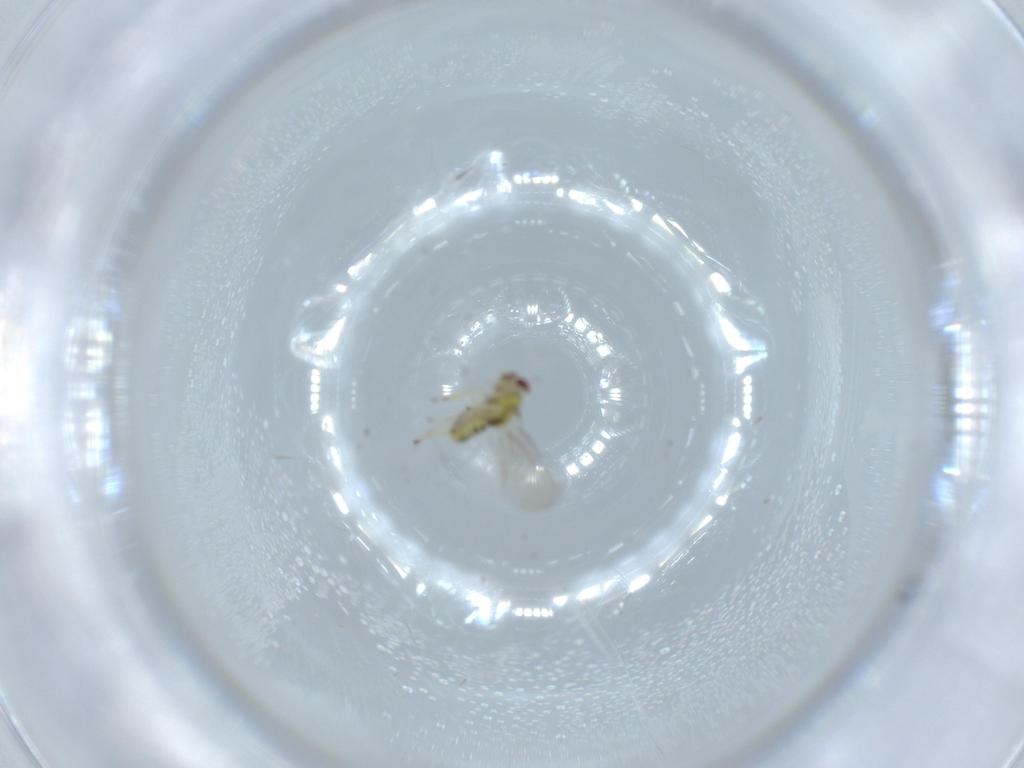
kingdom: Animalia
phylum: Arthropoda
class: Insecta
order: Hymenoptera
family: Eulophidae
